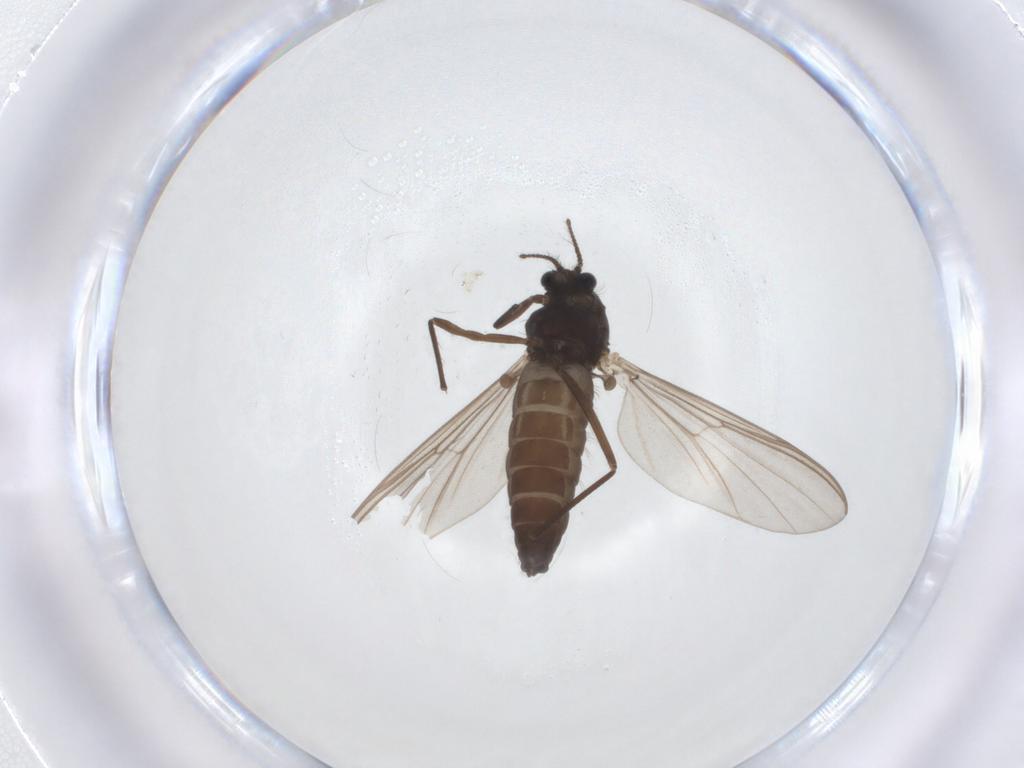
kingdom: Animalia
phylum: Arthropoda
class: Insecta
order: Diptera
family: Chironomidae
